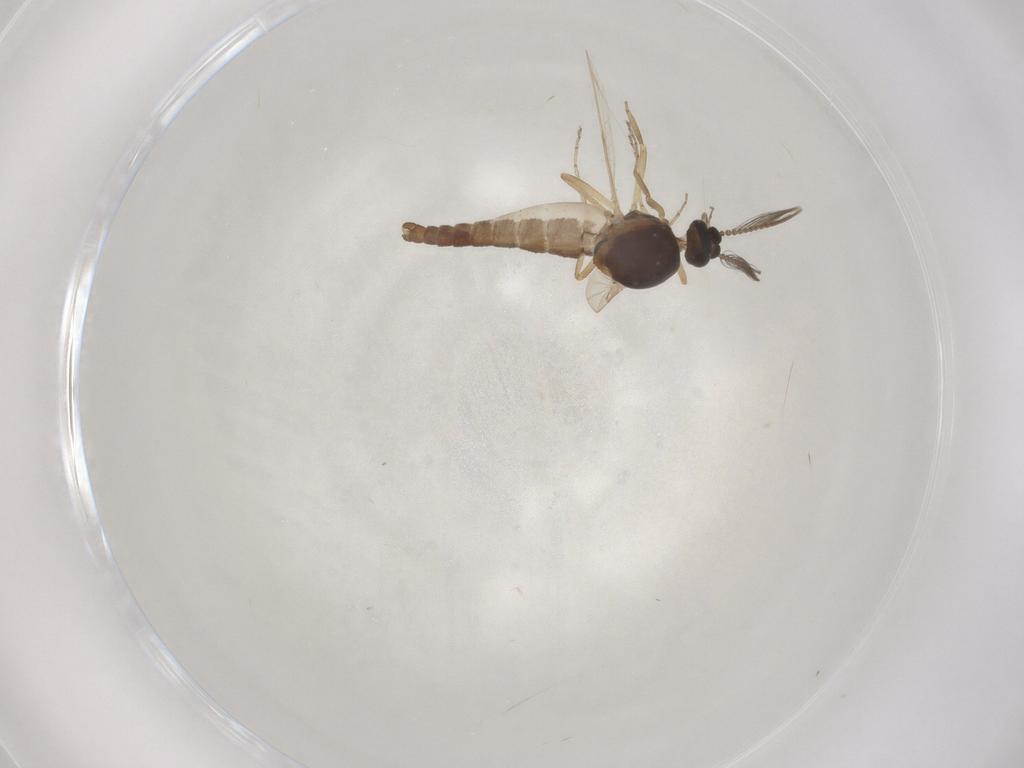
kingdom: Animalia
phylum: Arthropoda
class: Insecta
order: Diptera
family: Ceratopogonidae
